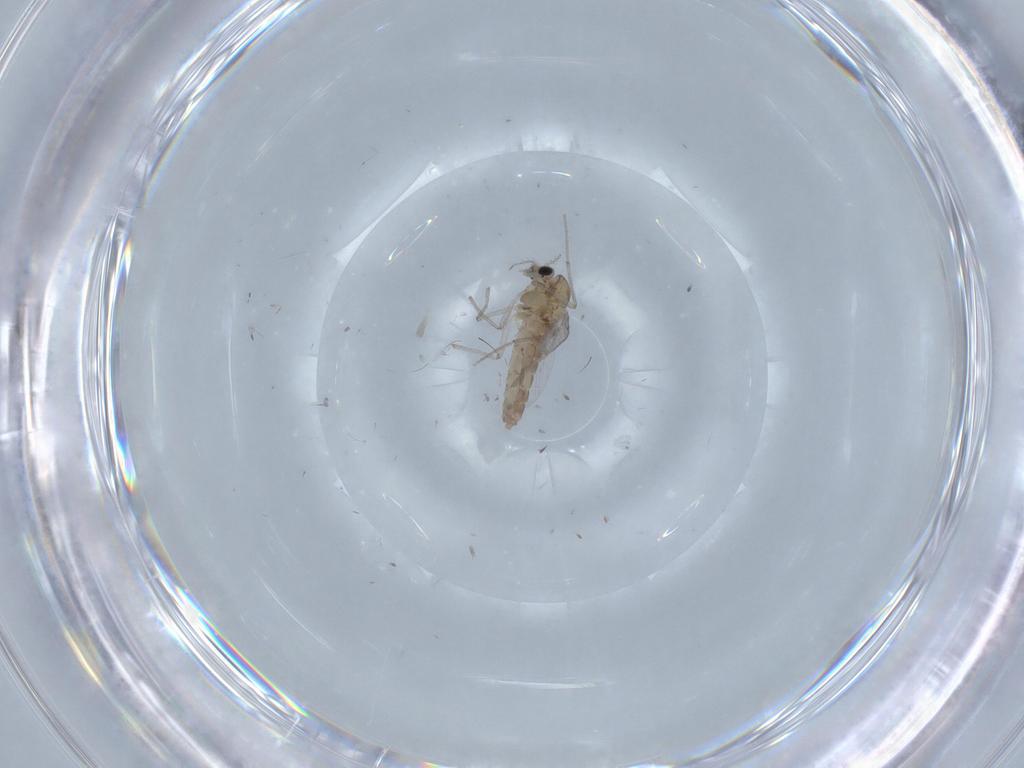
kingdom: Animalia
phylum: Arthropoda
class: Insecta
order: Diptera
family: Chironomidae
